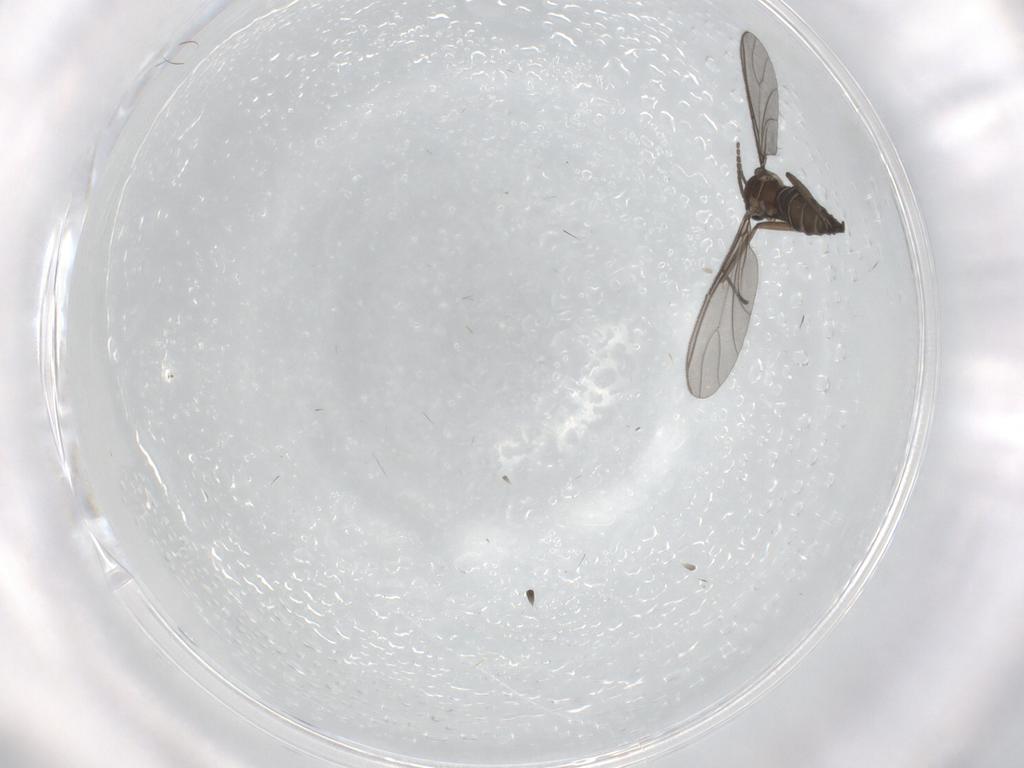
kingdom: Animalia
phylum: Arthropoda
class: Insecta
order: Diptera
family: Sciaridae
